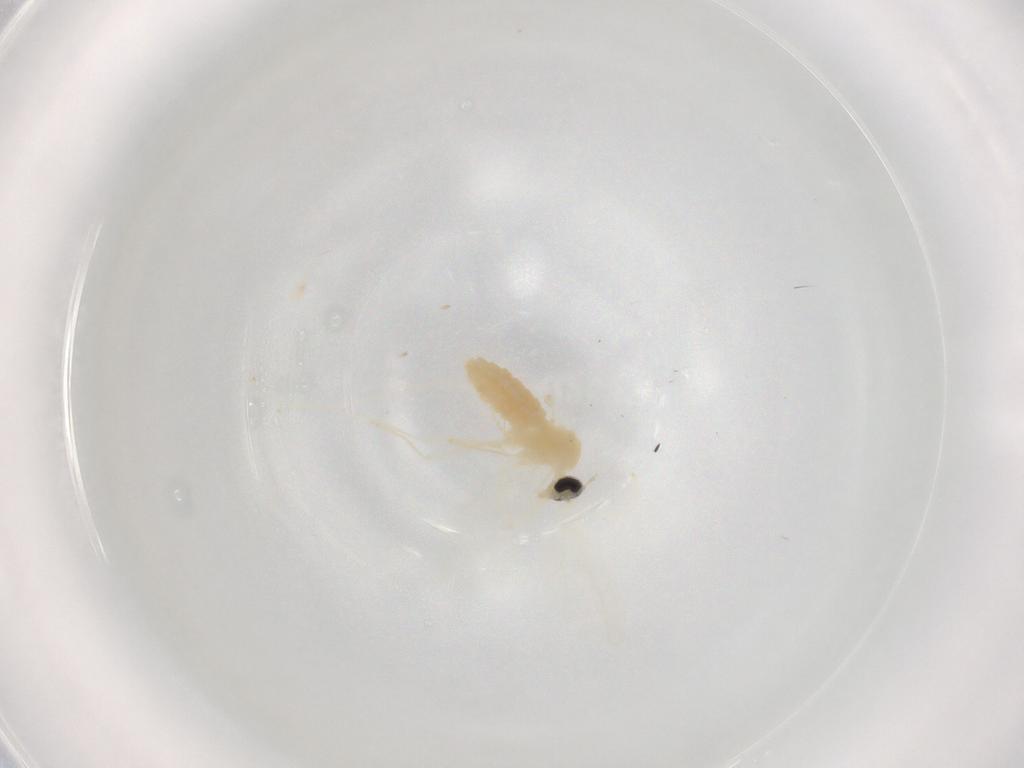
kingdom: Animalia
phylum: Arthropoda
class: Insecta
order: Diptera
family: Cecidomyiidae
